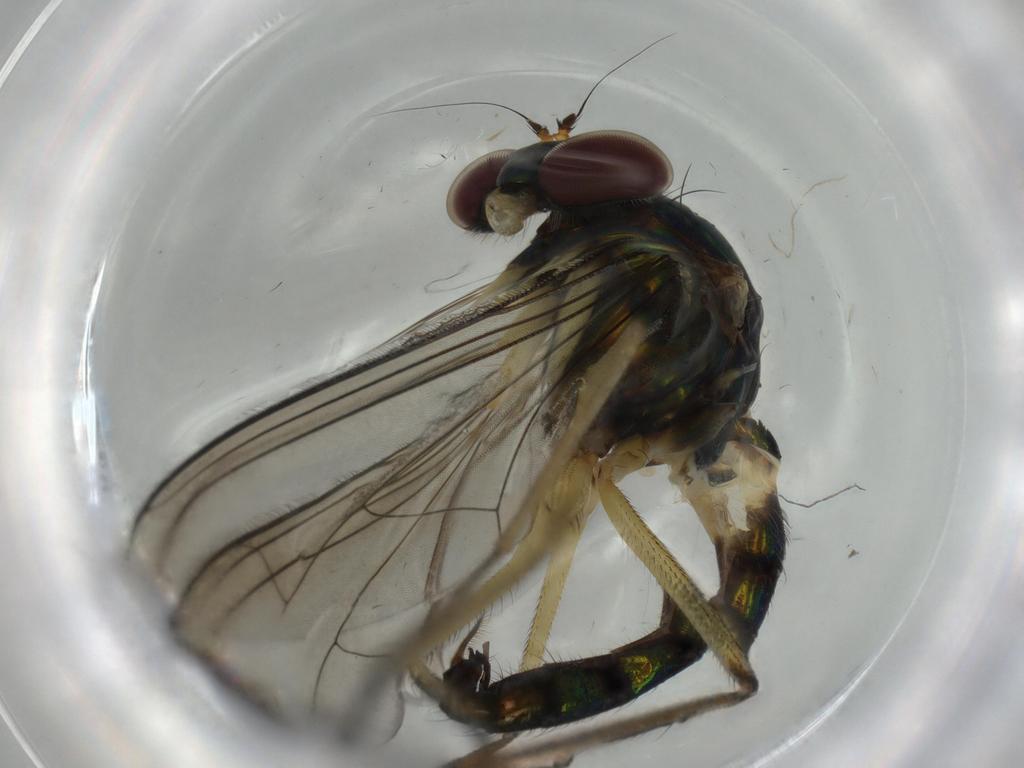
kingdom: Animalia
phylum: Arthropoda
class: Insecta
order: Diptera
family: Dolichopodidae
